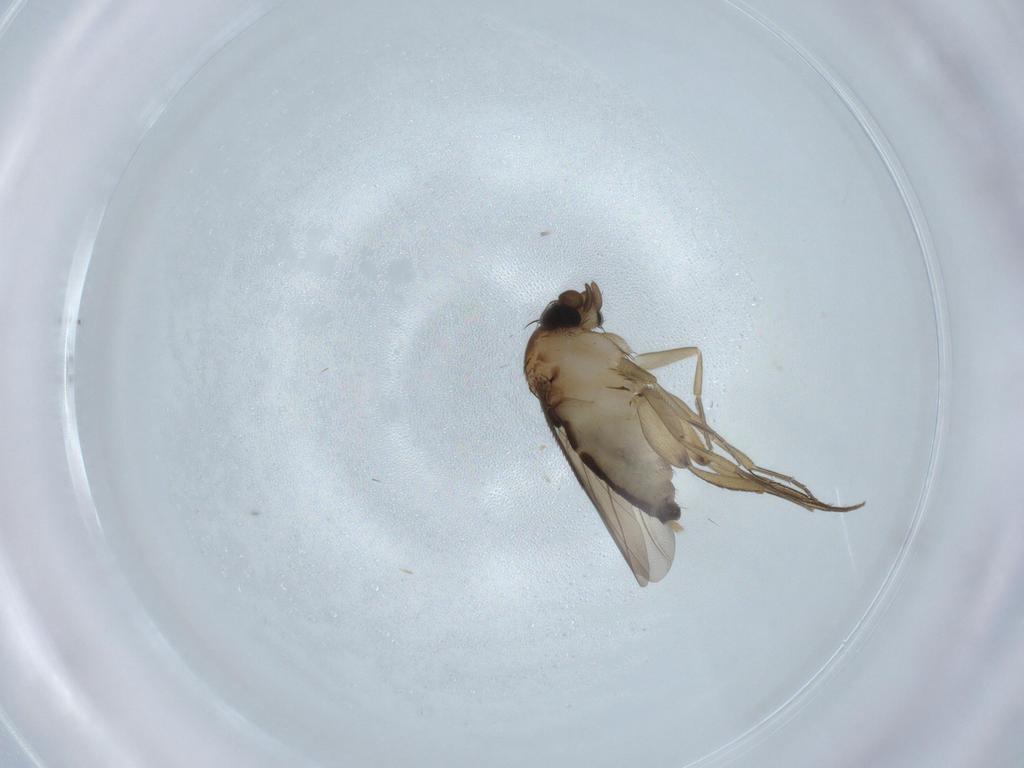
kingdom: Animalia
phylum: Arthropoda
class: Insecta
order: Diptera
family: Phoridae
